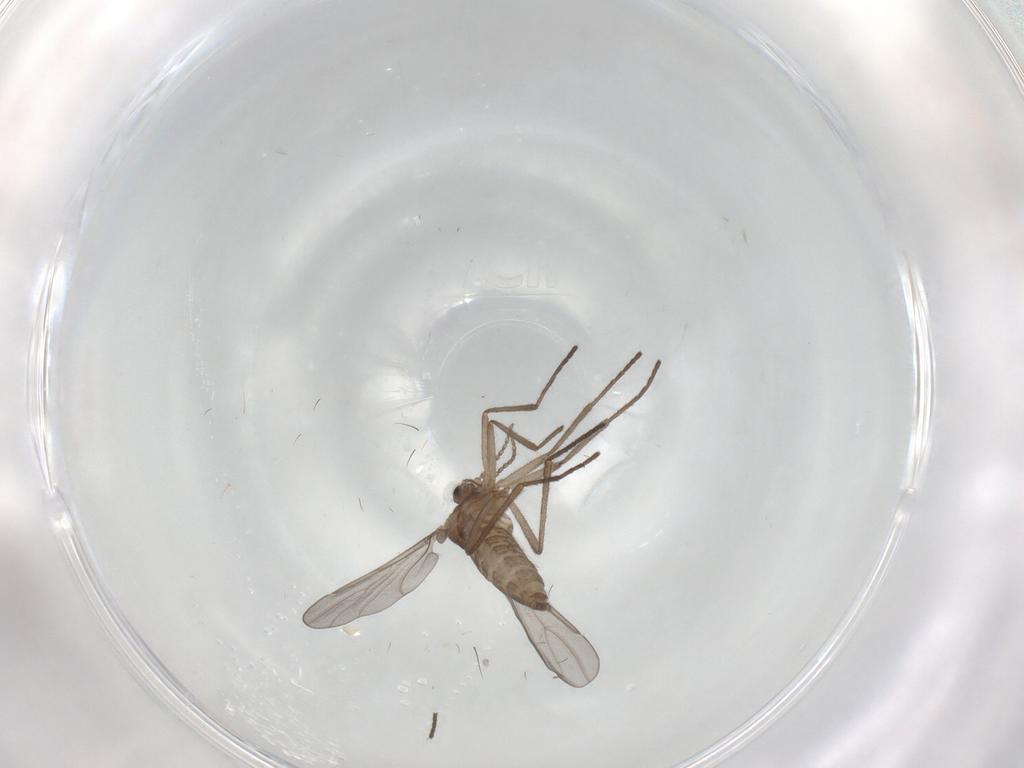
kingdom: Animalia
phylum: Arthropoda
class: Insecta
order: Diptera
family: Cecidomyiidae
